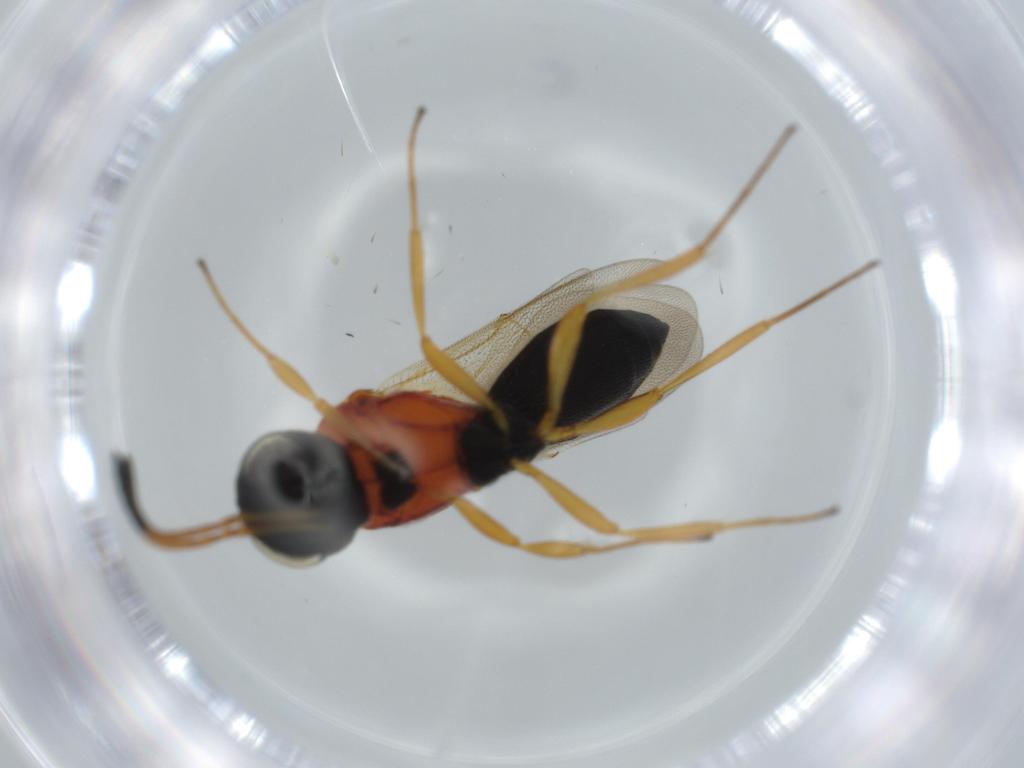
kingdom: Animalia
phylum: Arthropoda
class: Insecta
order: Hymenoptera
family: Scelionidae
